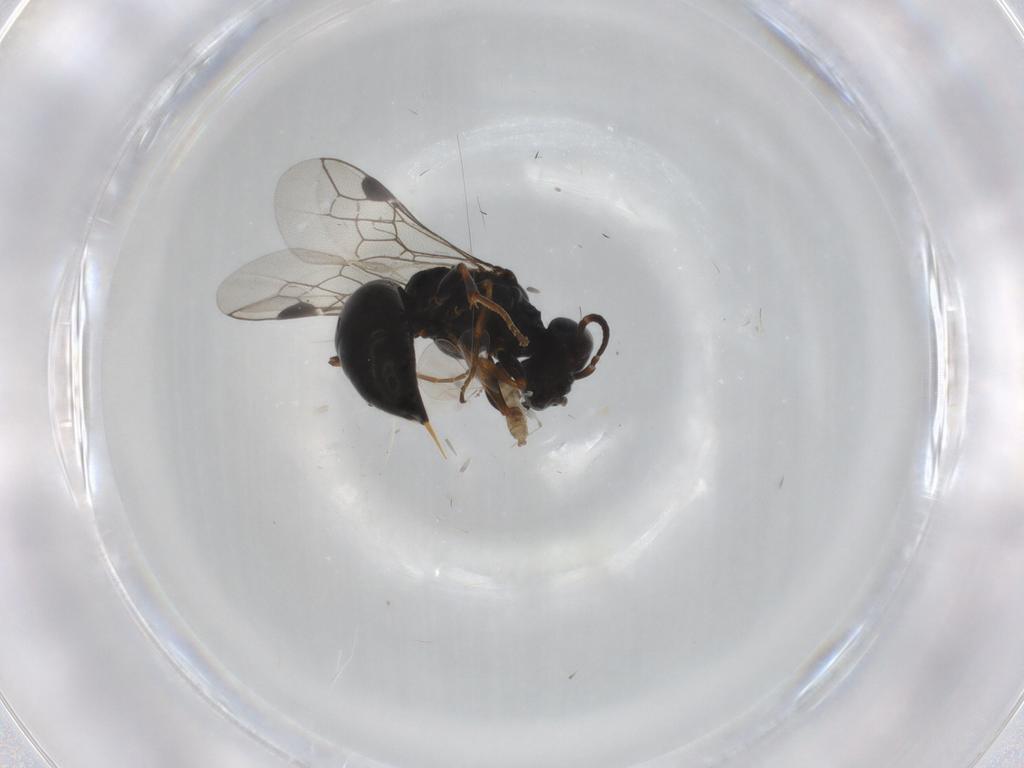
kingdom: Animalia
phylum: Arthropoda
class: Insecta
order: Hymenoptera
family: Pemphredonidae
